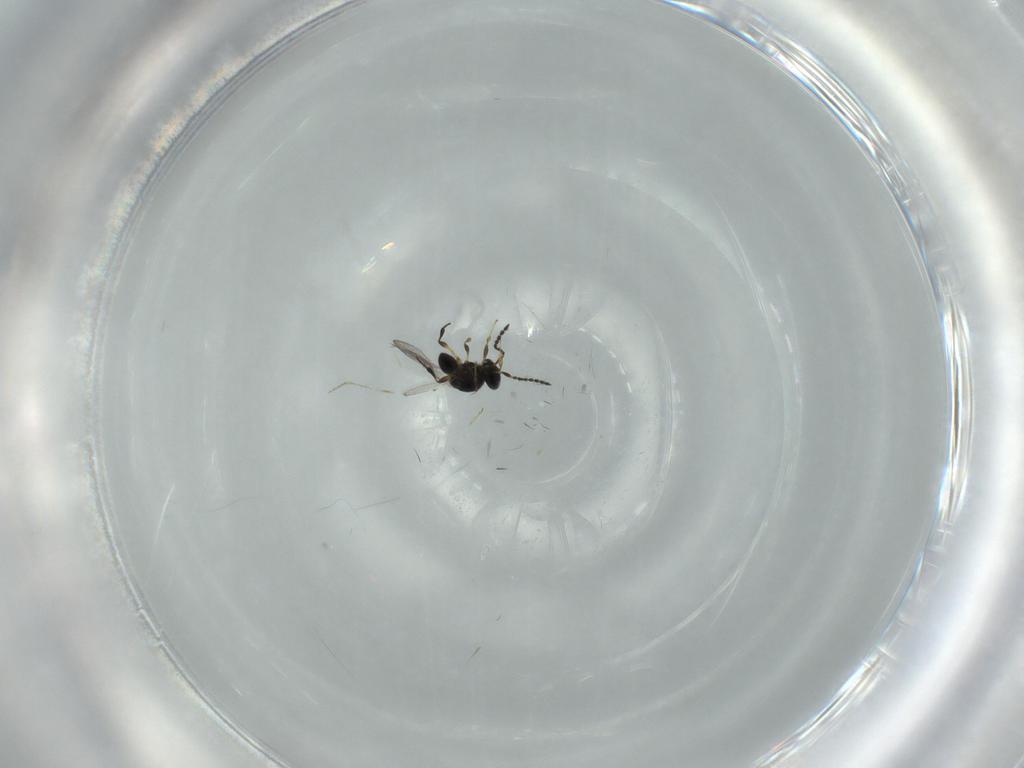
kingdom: Animalia
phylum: Arthropoda
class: Insecta
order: Hymenoptera
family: Platygastridae
